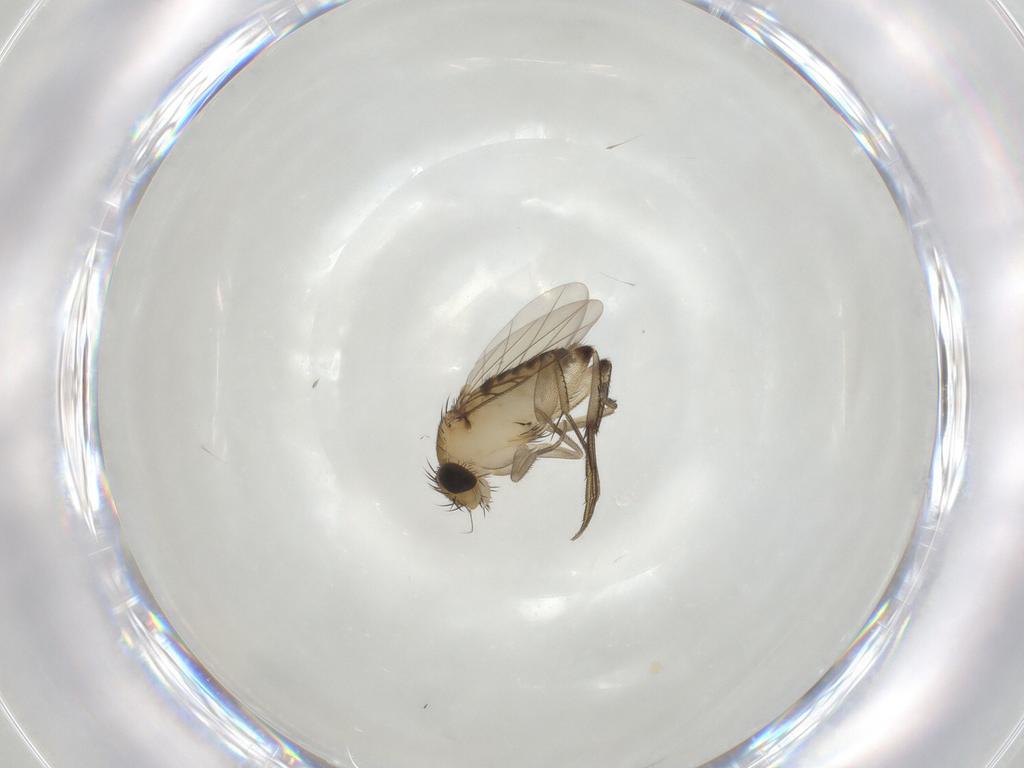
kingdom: Animalia
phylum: Arthropoda
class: Insecta
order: Diptera
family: Phoridae
